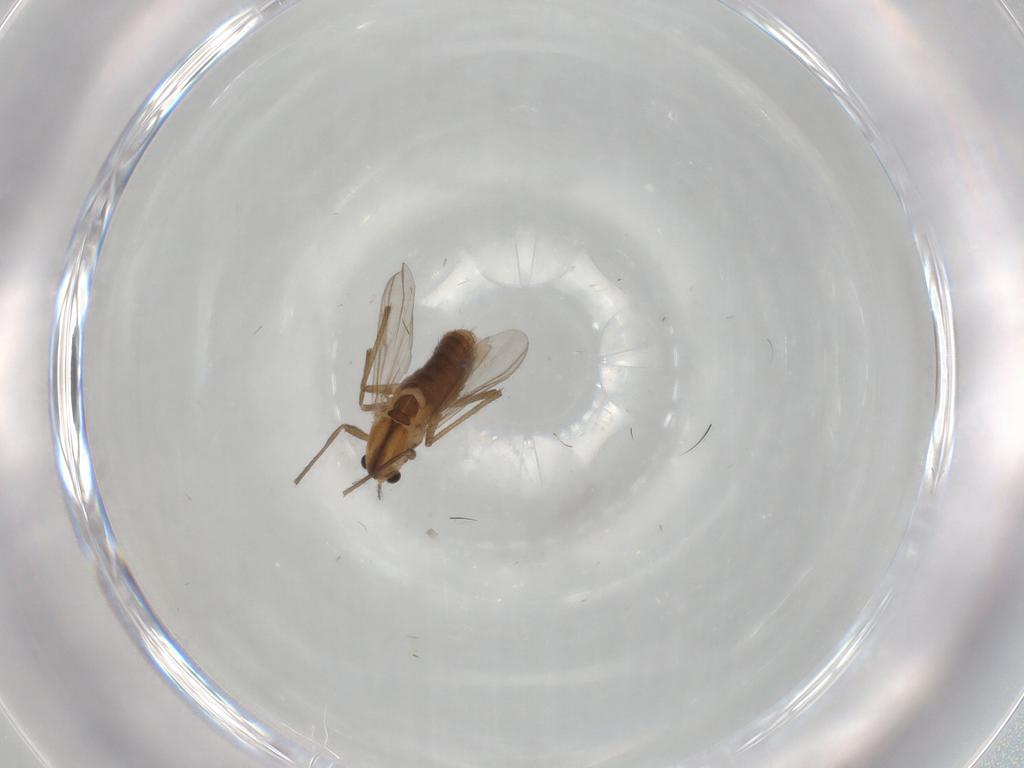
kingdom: Animalia
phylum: Arthropoda
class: Insecta
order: Diptera
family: Chironomidae
